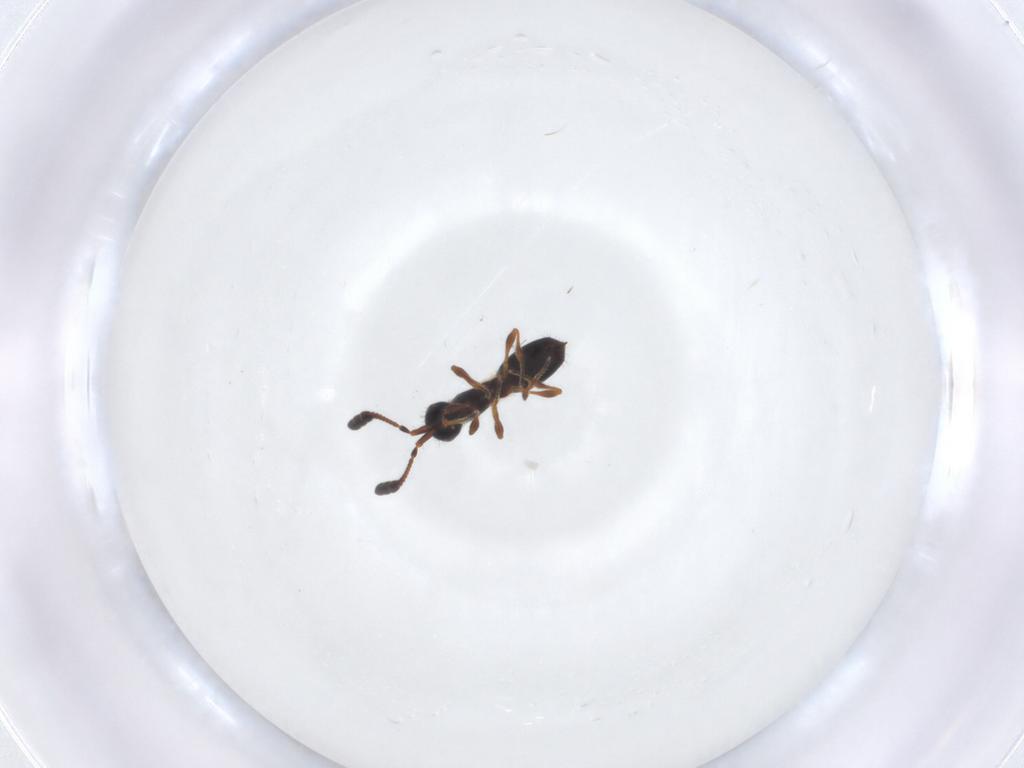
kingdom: Animalia
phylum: Arthropoda
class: Insecta
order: Hymenoptera
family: Diapriidae
